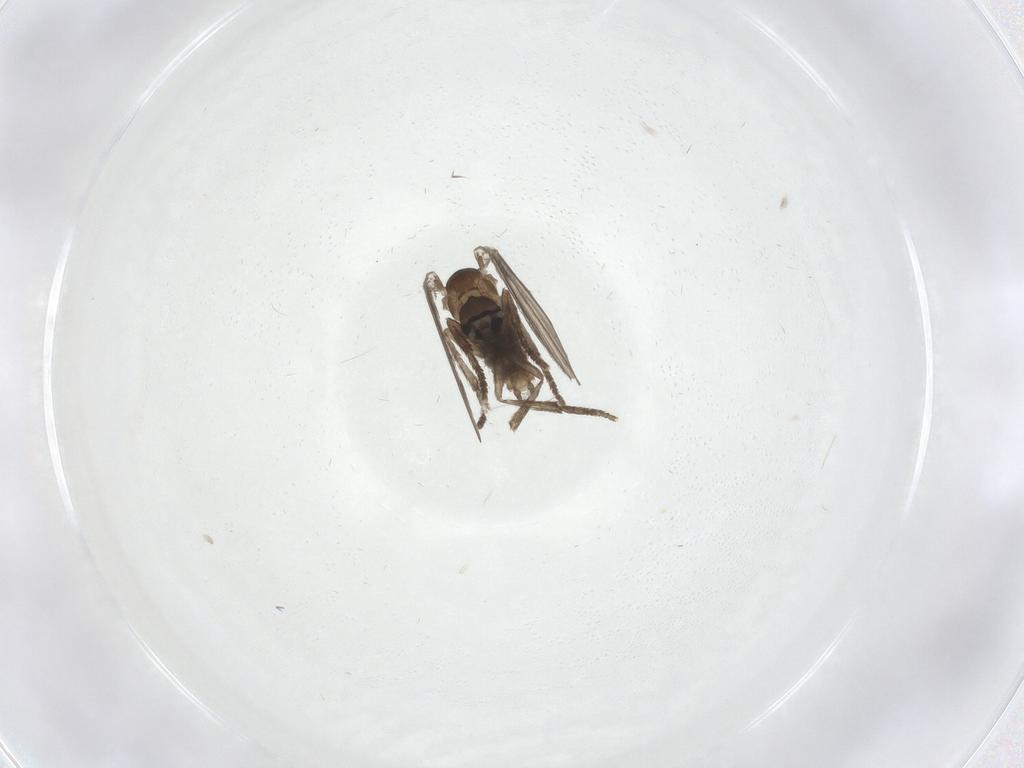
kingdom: Animalia
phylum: Arthropoda
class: Insecta
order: Diptera
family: Psychodidae
